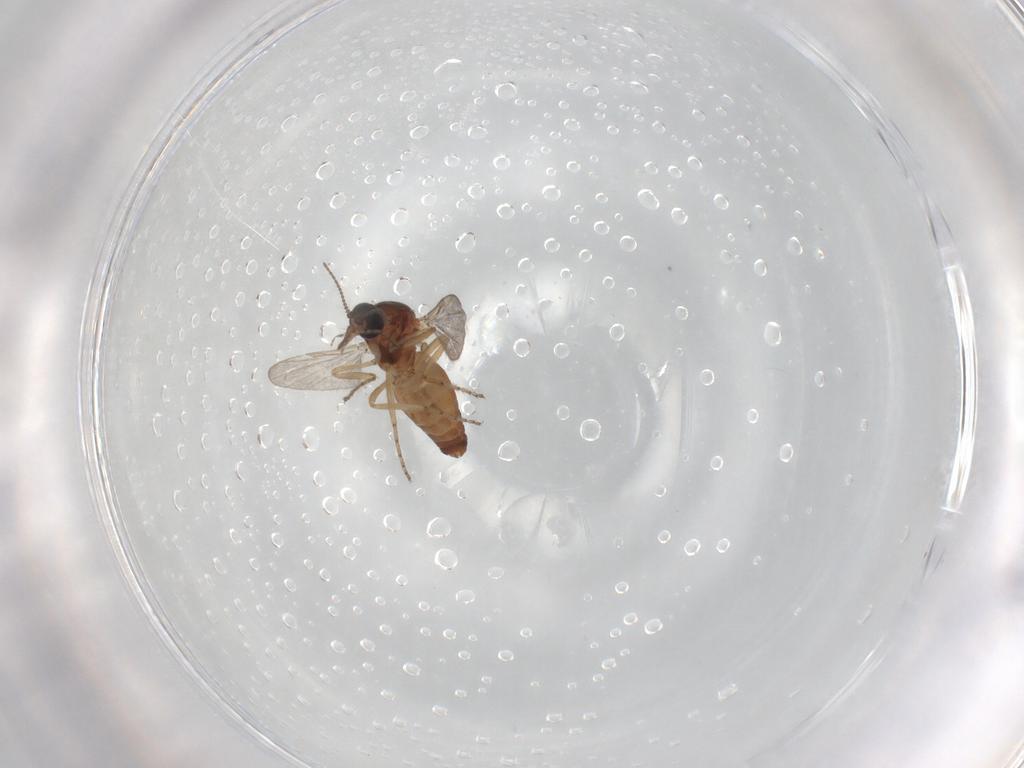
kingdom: Animalia
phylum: Arthropoda
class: Insecta
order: Diptera
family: Ceratopogonidae
